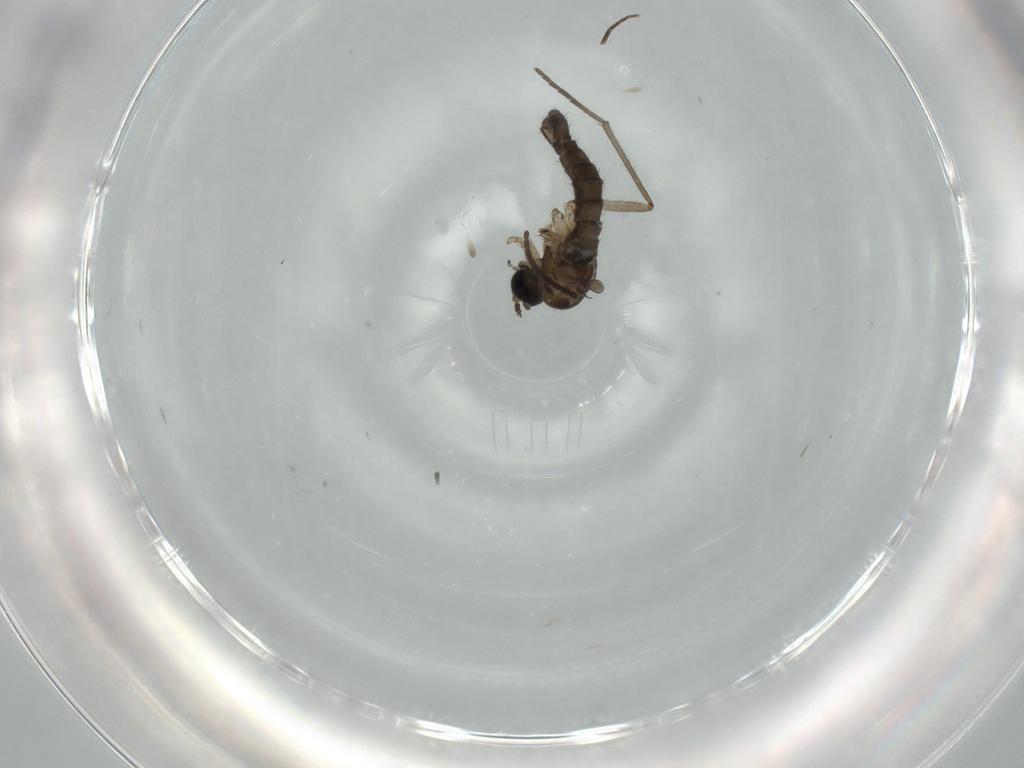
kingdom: Animalia
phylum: Arthropoda
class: Insecta
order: Diptera
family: Sciaridae
